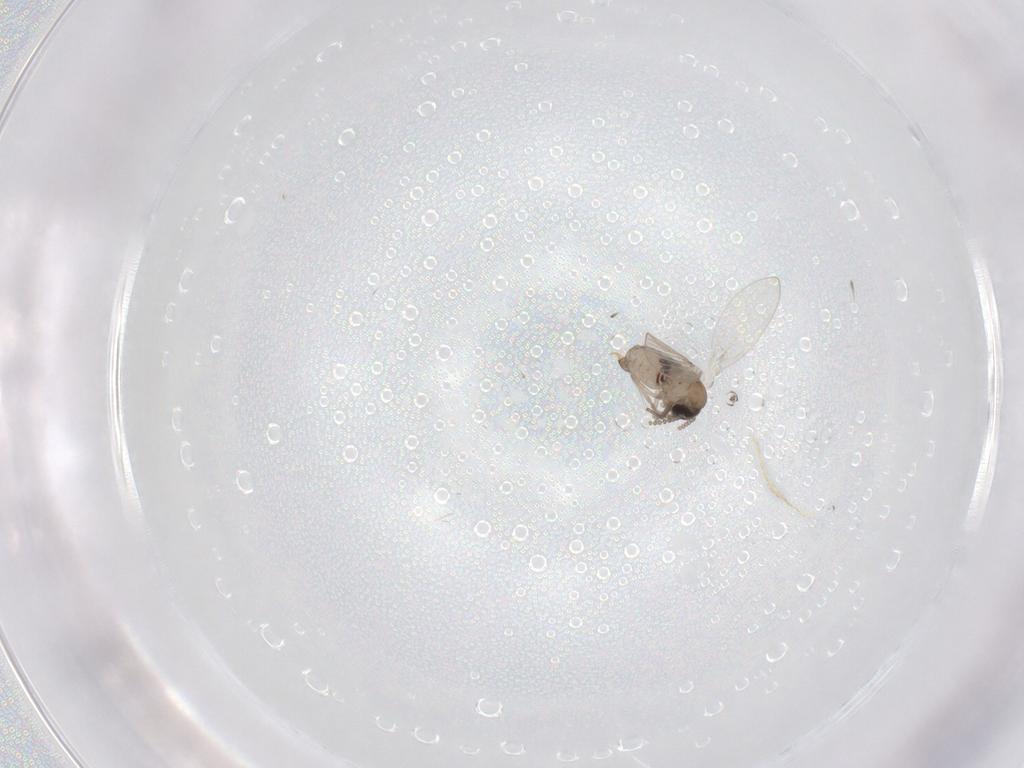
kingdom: Animalia
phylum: Arthropoda
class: Insecta
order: Diptera
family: Psychodidae
